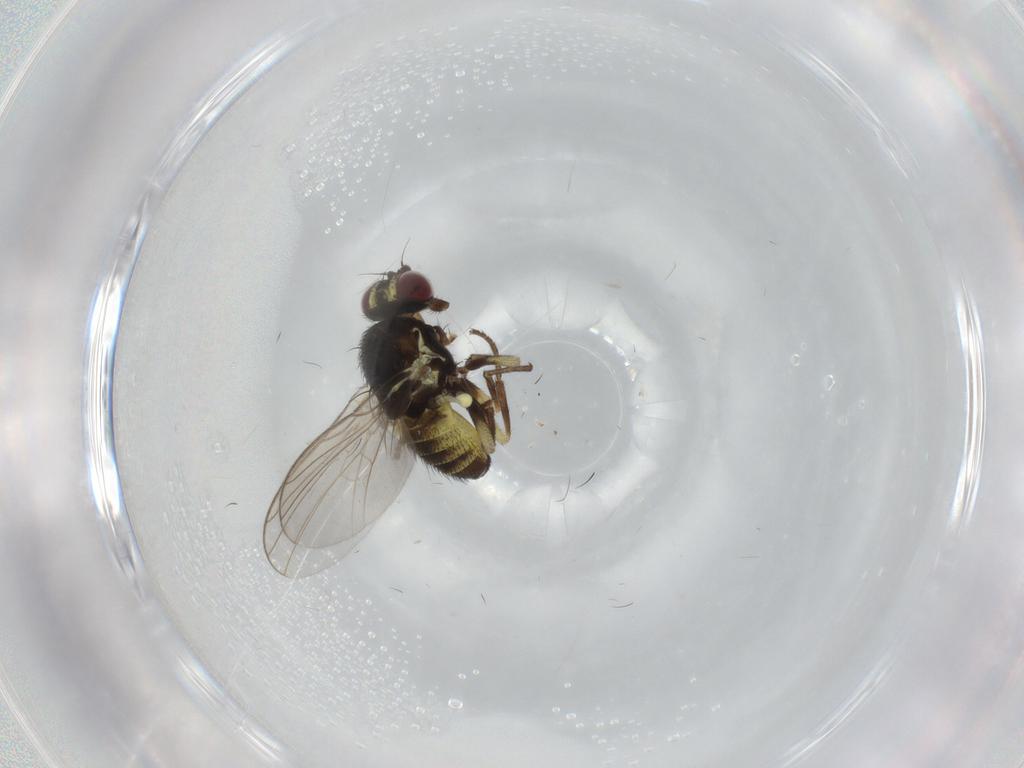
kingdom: Animalia
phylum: Arthropoda
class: Insecta
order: Diptera
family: Agromyzidae
